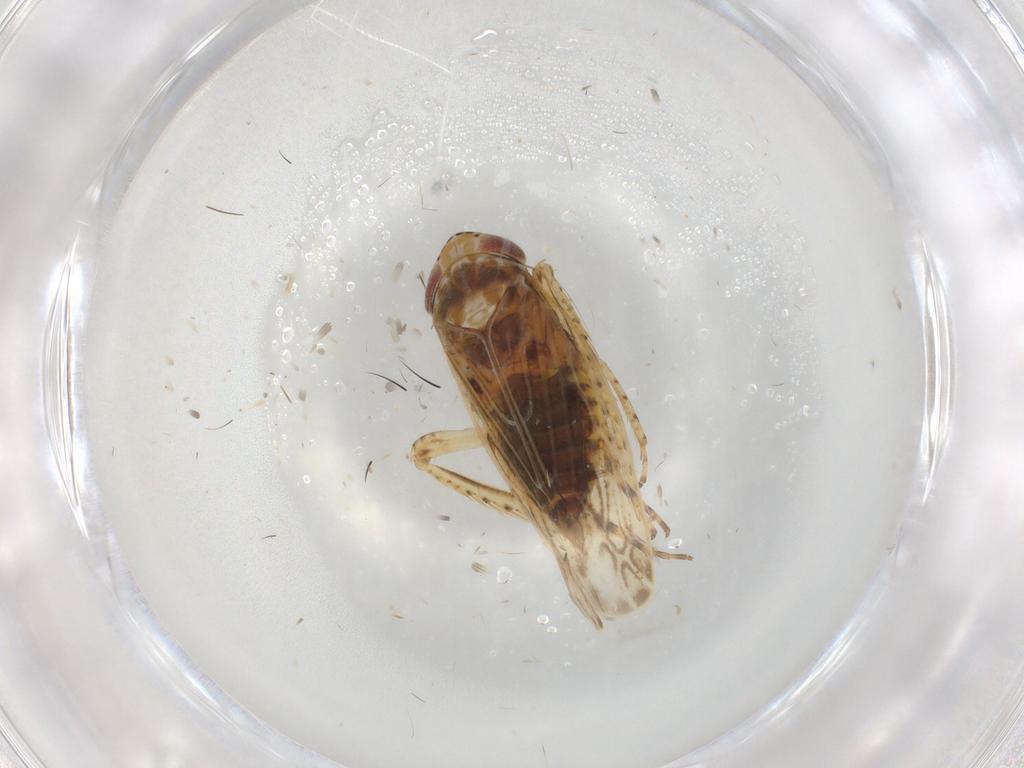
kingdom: Animalia
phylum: Arthropoda
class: Insecta
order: Hemiptera
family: Cicadellidae
